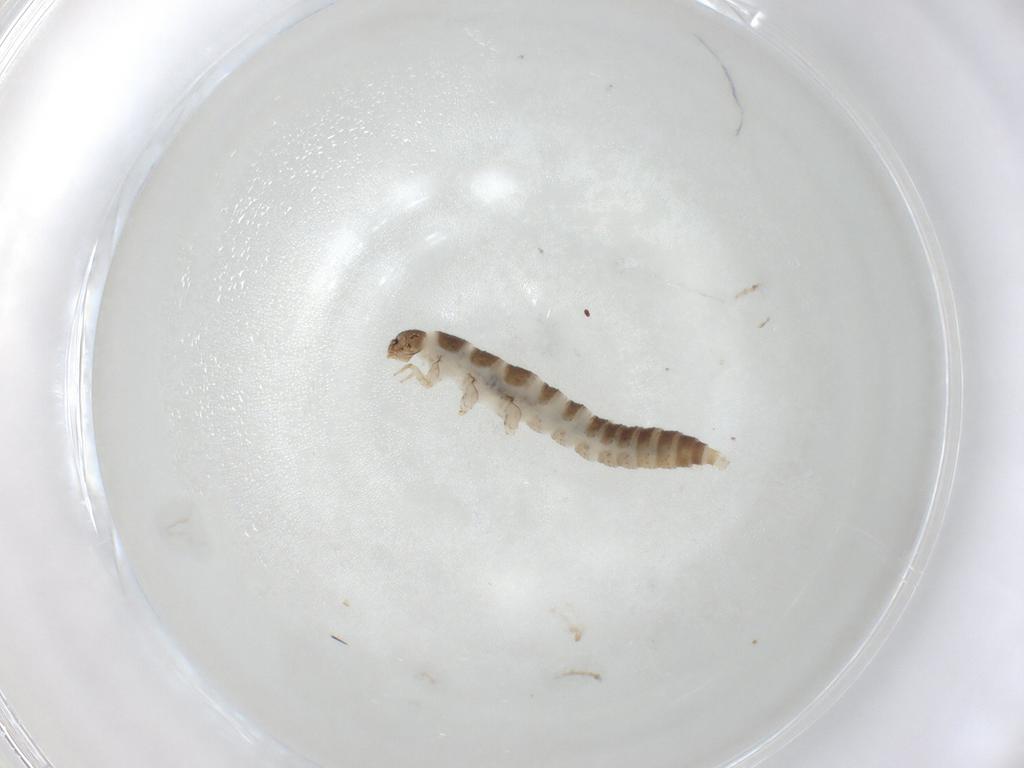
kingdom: Animalia
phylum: Arthropoda
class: Insecta
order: Coleoptera
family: Hydraenidae
